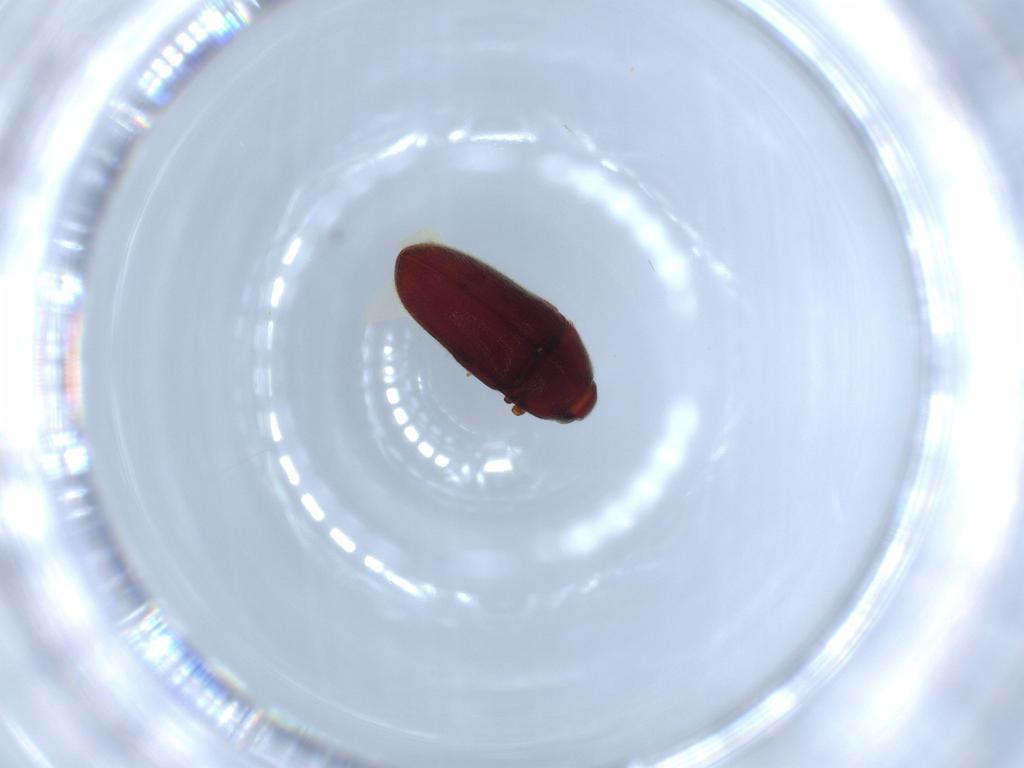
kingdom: Animalia
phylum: Arthropoda
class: Insecta
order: Coleoptera
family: Throscidae
